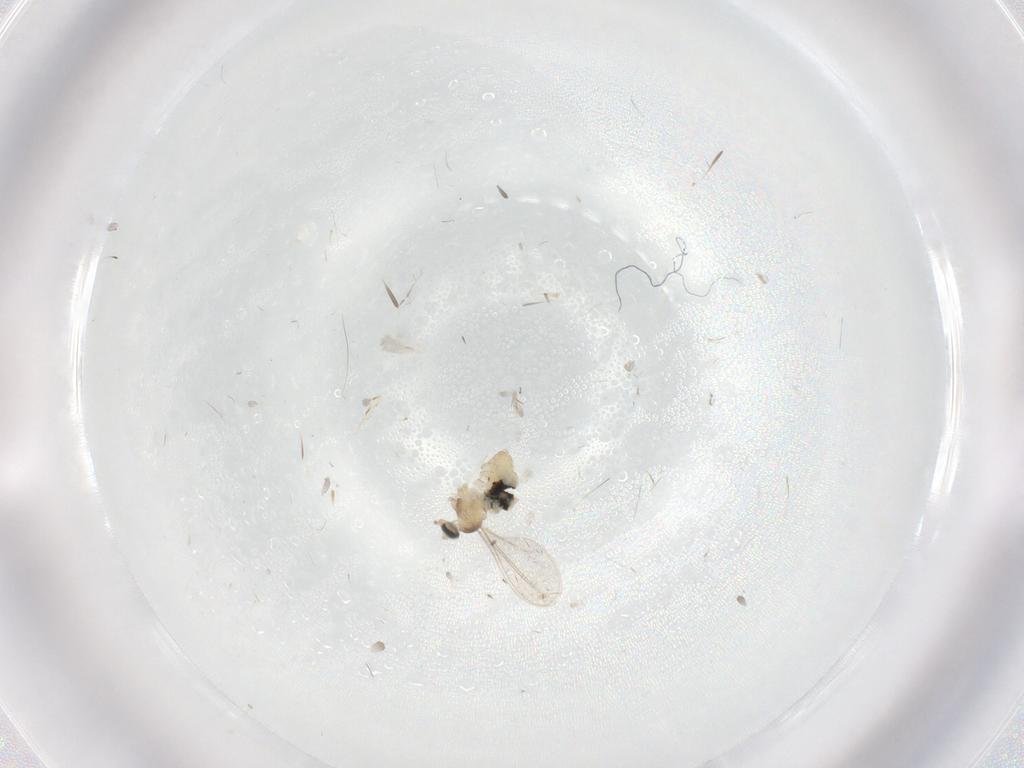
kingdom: Animalia
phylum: Arthropoda
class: Insecta
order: Diptera
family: Cecidomyiidae
